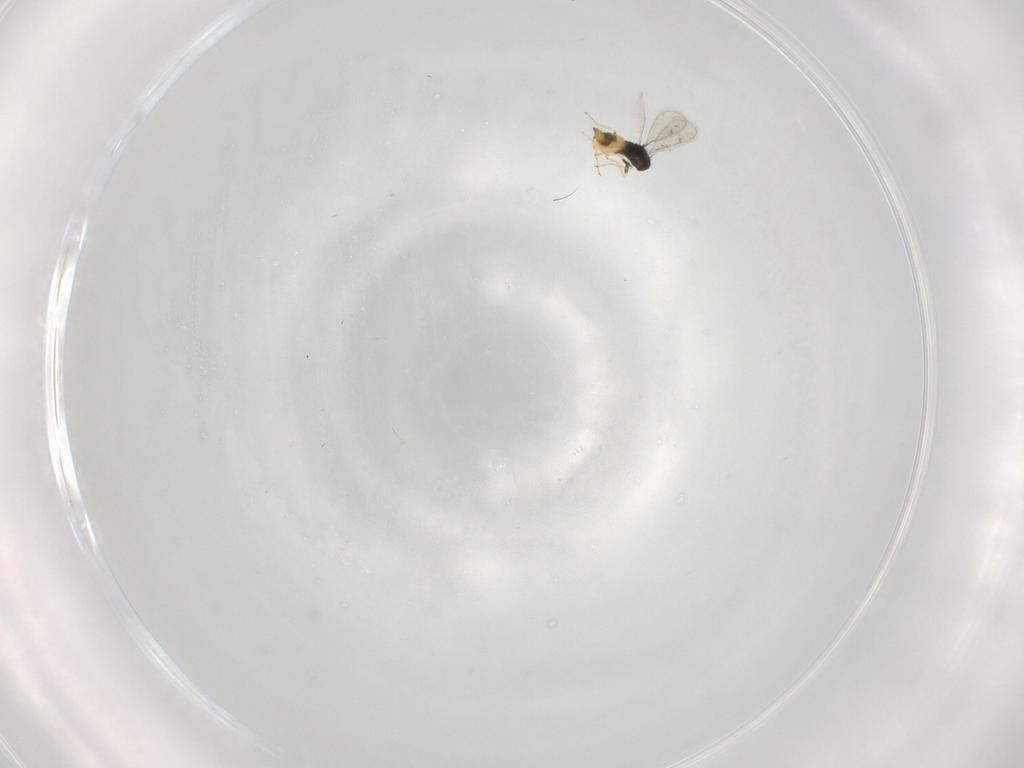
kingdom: Animalia
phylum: Arthropoda
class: Insecta
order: Hymenoptera
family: Eulophidae
